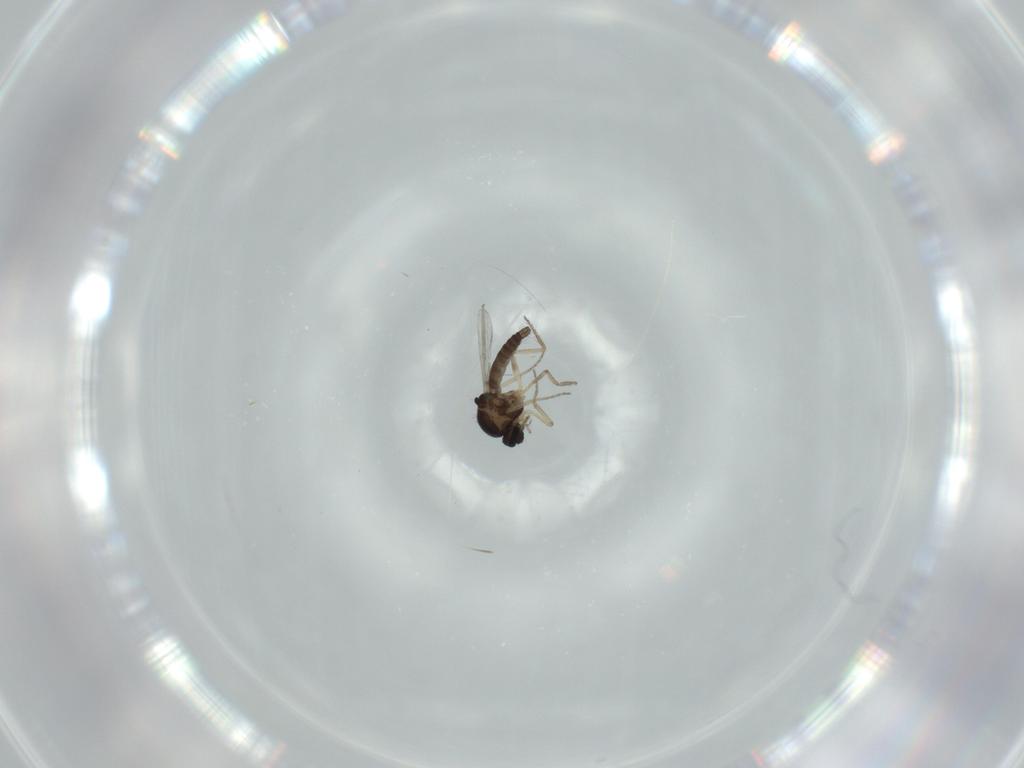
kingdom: Animalia
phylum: Arthropoda
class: Insecta
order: Diptera
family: Ceratopogonidae
